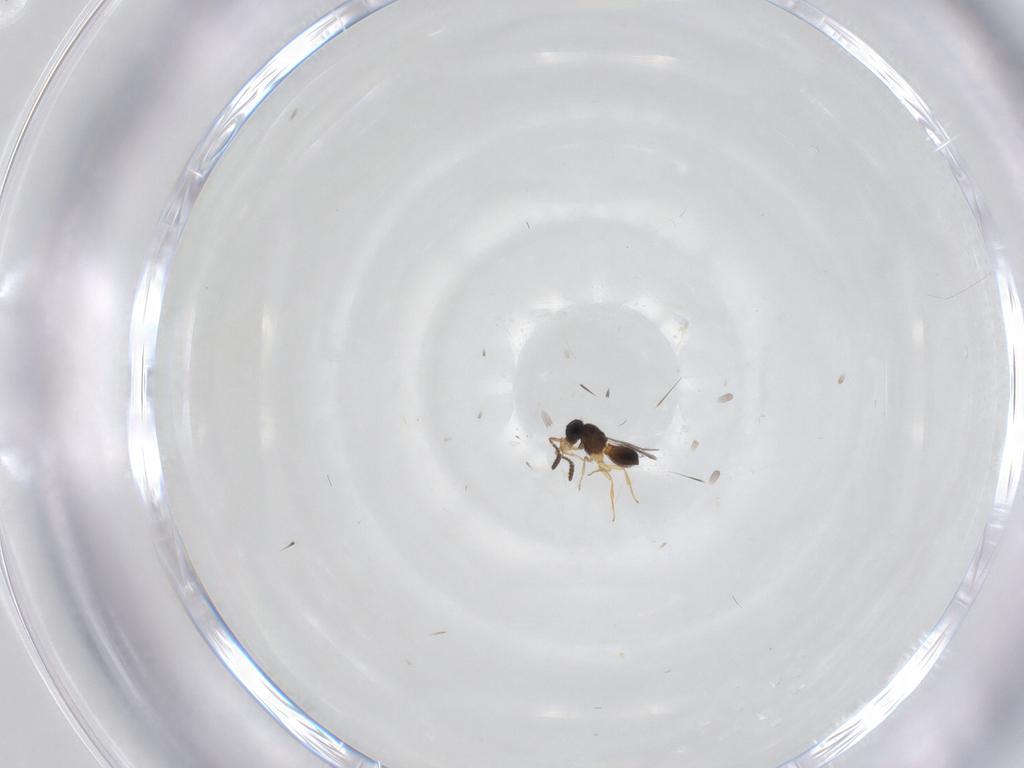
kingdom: Animalia
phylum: Arthropoda
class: Insecta
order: Hymenoptera
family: Scelionidae
